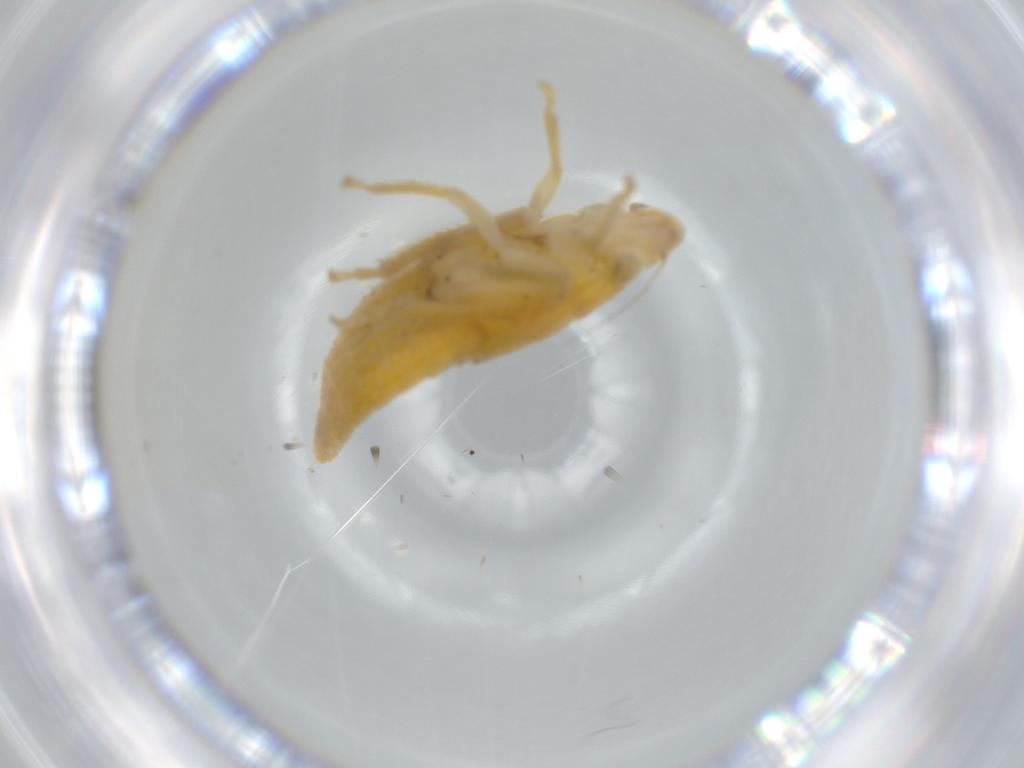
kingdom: Animalia
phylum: Arthropoda
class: Insecta
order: Hemiptera
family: Cicadellidae
